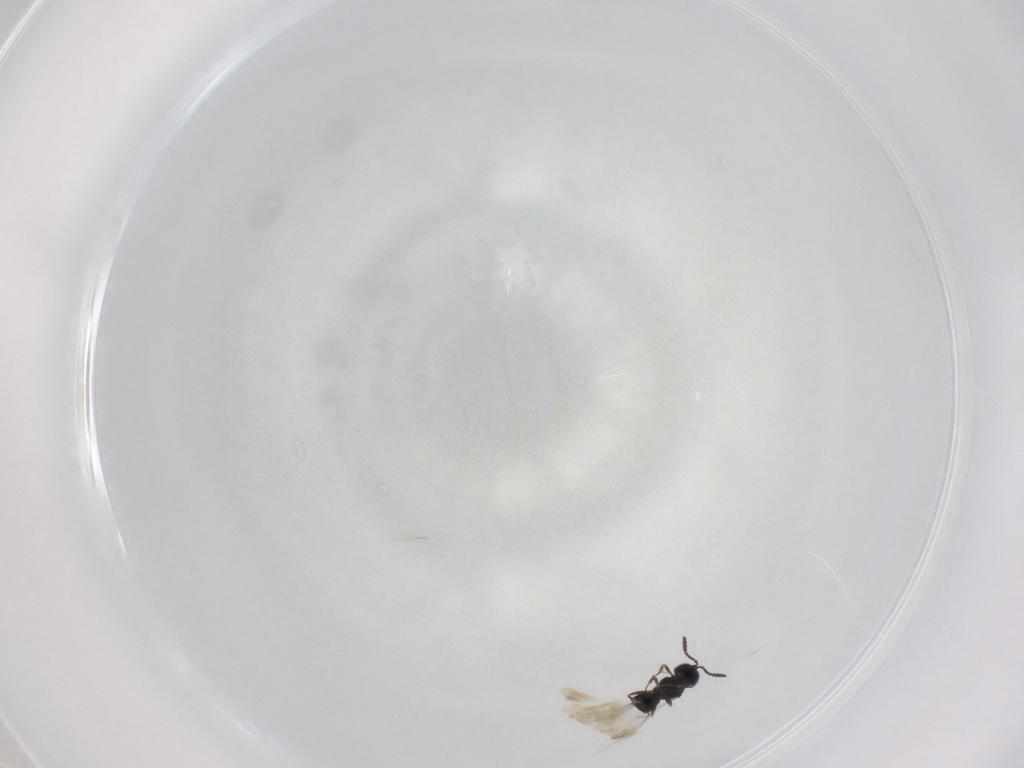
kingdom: Animalia
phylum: Arthropoda
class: Insecta
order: Hymenoptera
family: Scelionidae
